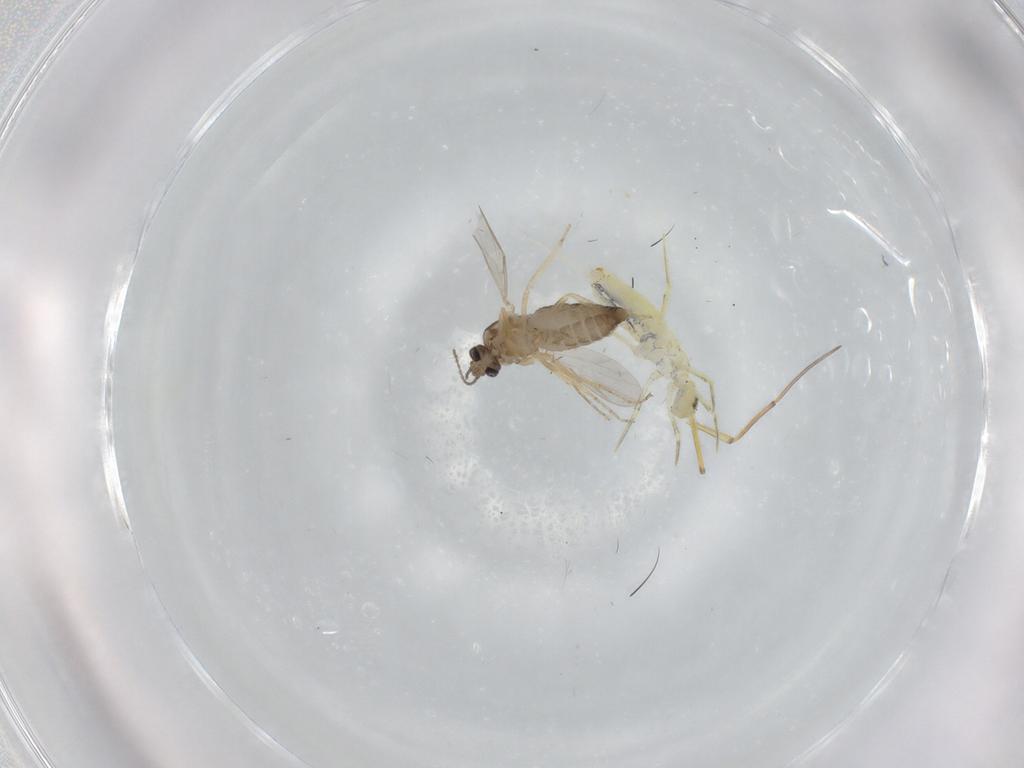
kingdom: Animalia
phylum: Arthropoda
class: Insecta
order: Diptera
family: Ceratopogonidae
